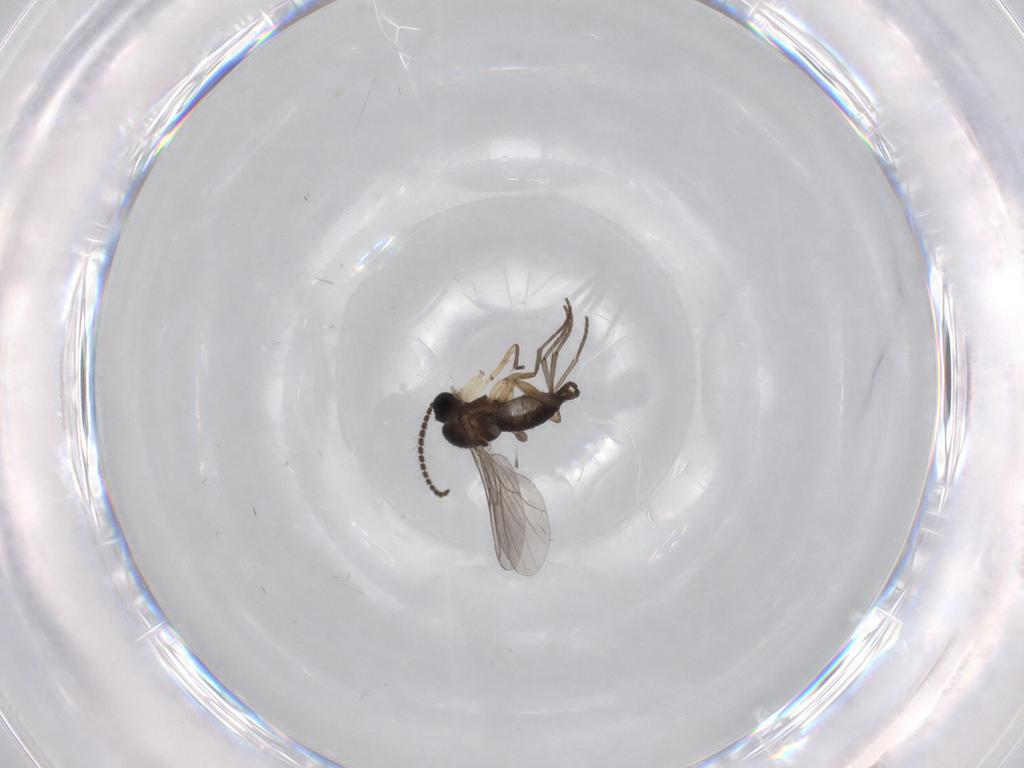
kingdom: Animalia
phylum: Arthropoda
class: Insecta
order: Diptera
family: Sciaridae
